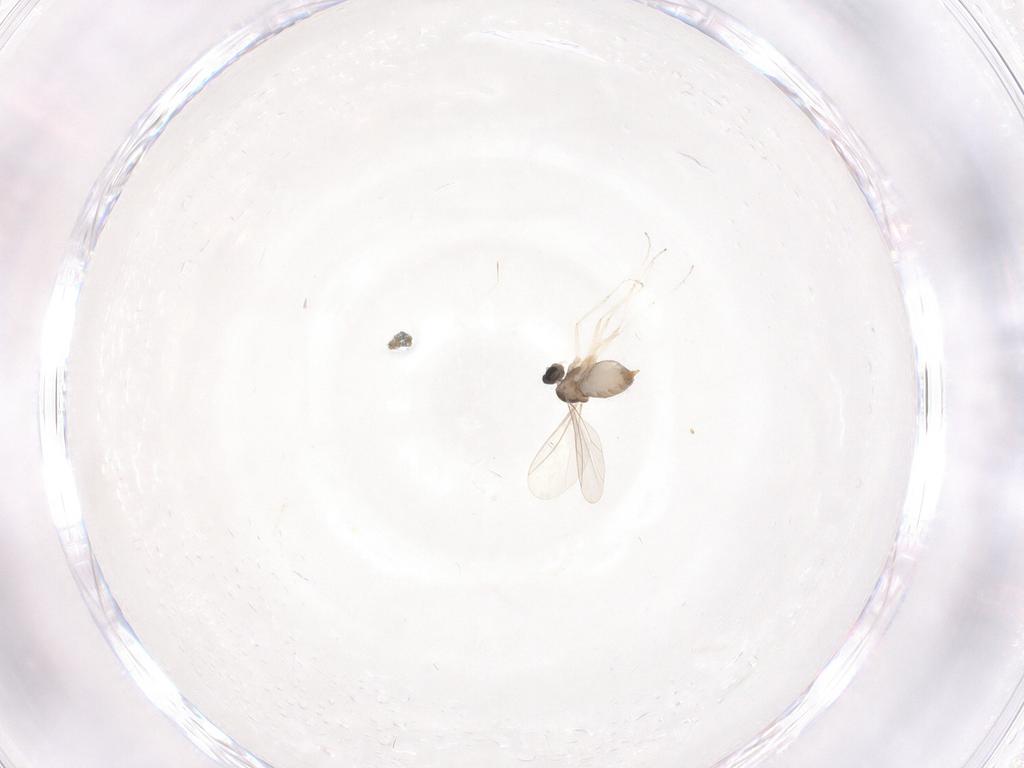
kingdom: Animalia
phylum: Arthropoda
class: Insecta
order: Diptera
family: Cecidomyiidae
